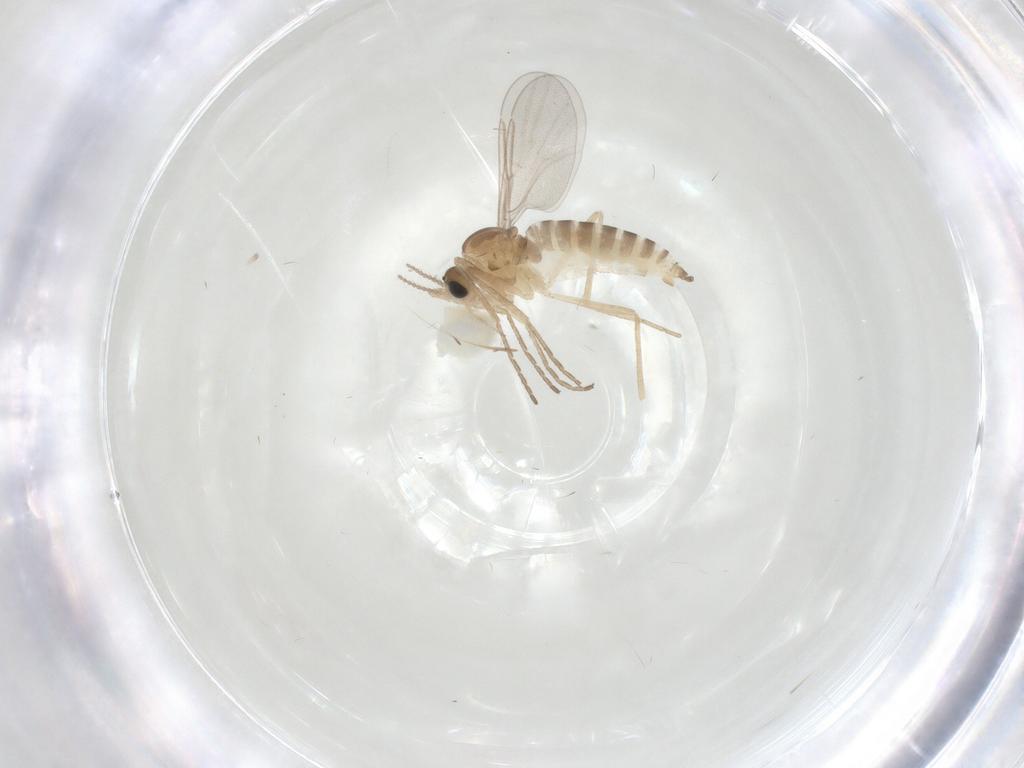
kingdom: Animalia
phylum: Arthropoda
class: Insecta
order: Diptera
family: Cecidomyiidae
